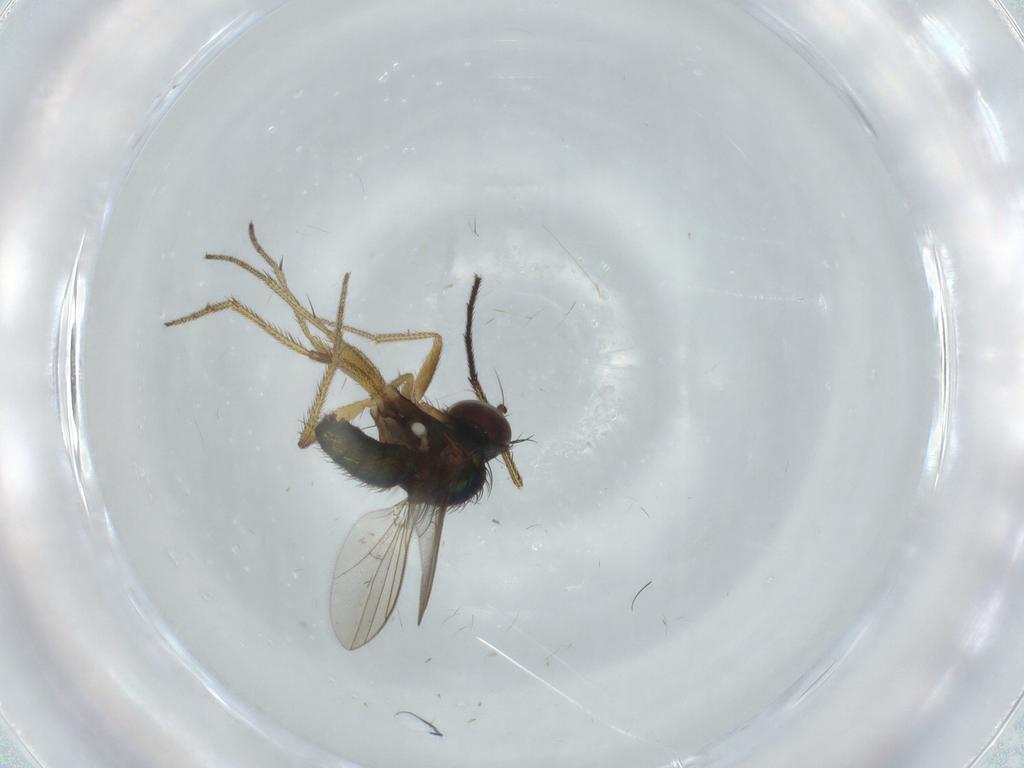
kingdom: Animalia
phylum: Arthropoda
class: Insecta
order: Diptera
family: Dolichopodidae
